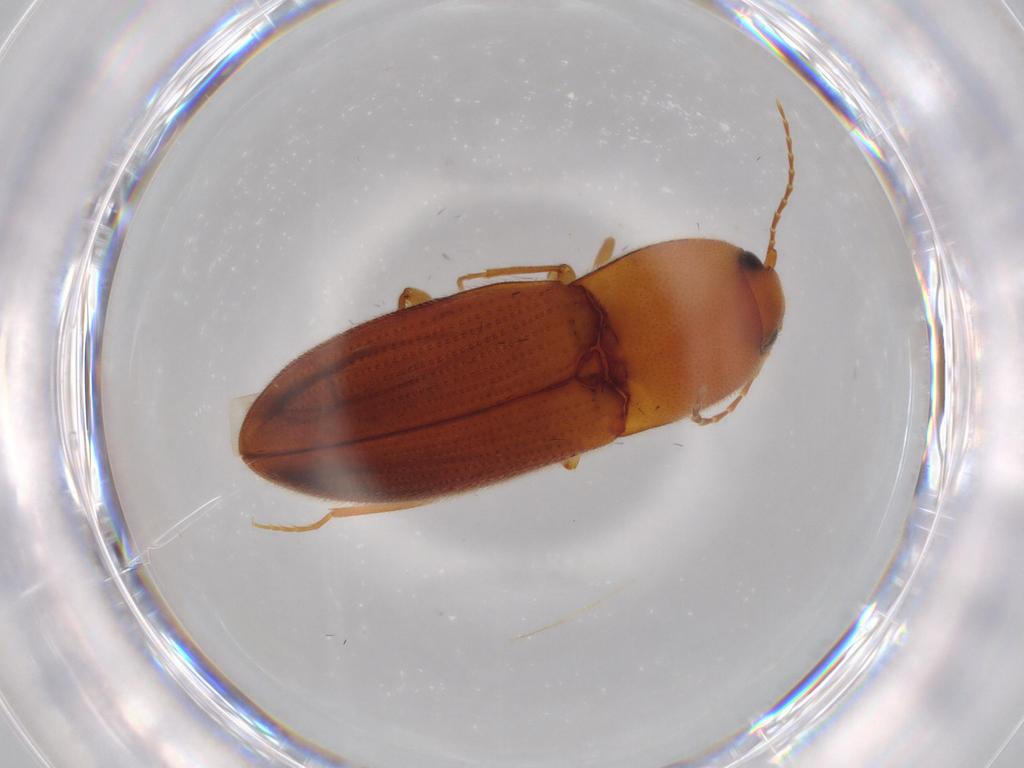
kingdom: Animalia
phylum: Arthropoda
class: Insecta
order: Coleoptera
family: Elateridae
